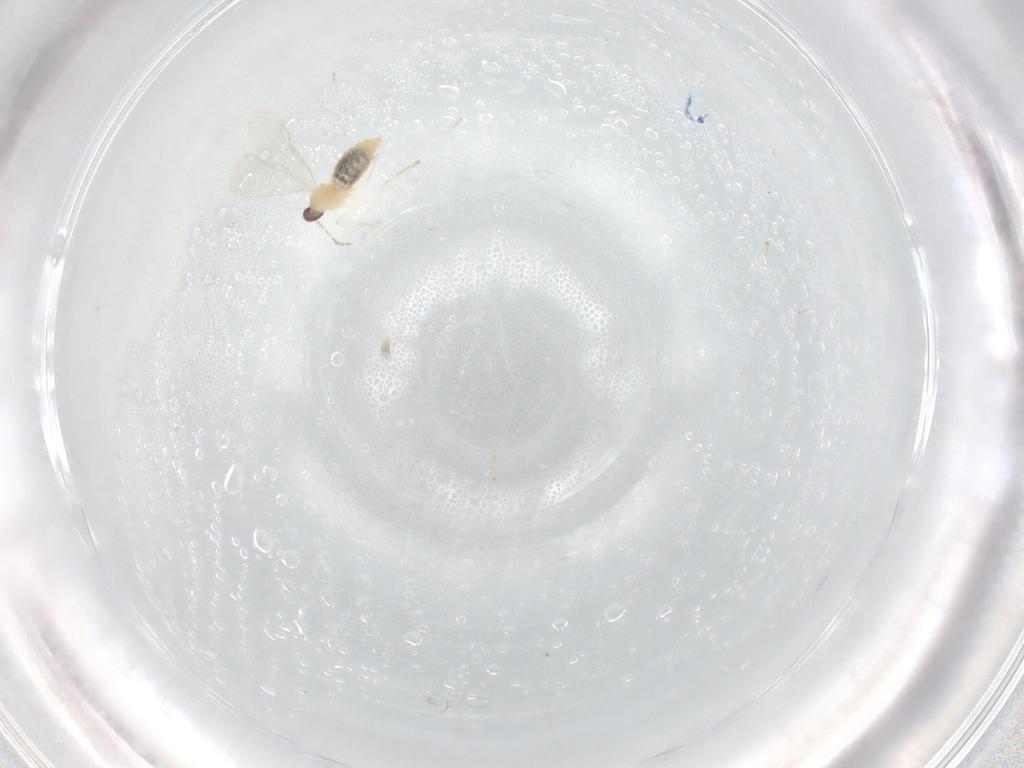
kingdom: Animalia
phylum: Arthropoda
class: Insecta
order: Diptera
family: Cecidomyiidae
